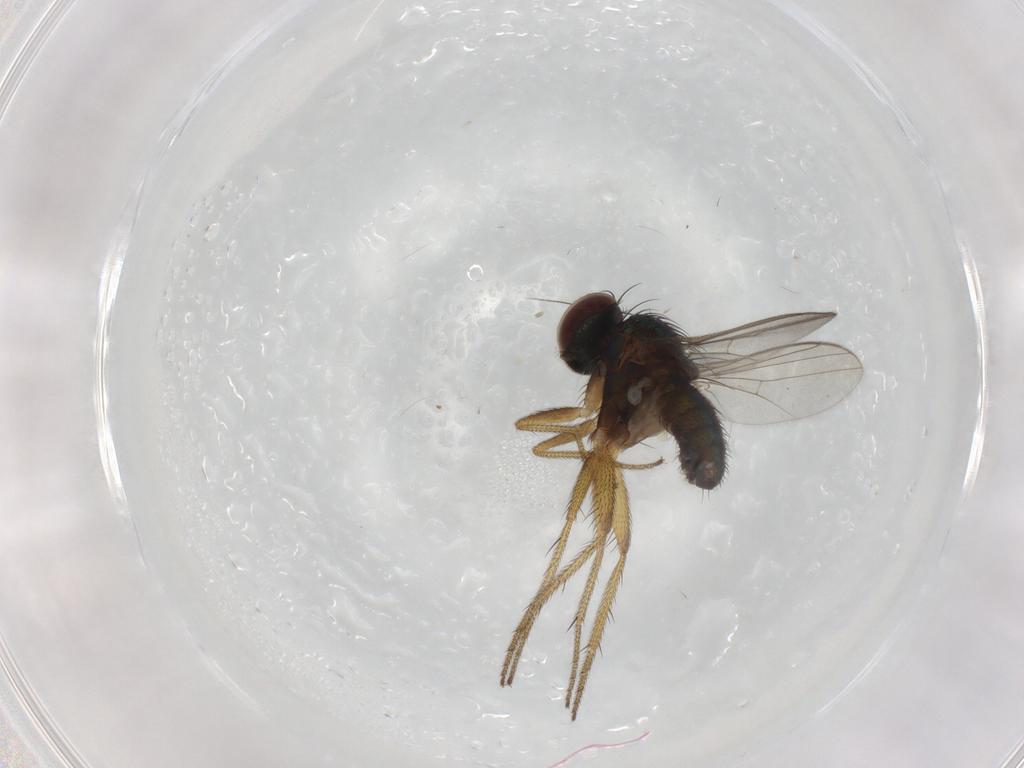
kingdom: Animalia
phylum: Arthropoda
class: Insecta
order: Diptera
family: Dolichopodidae
